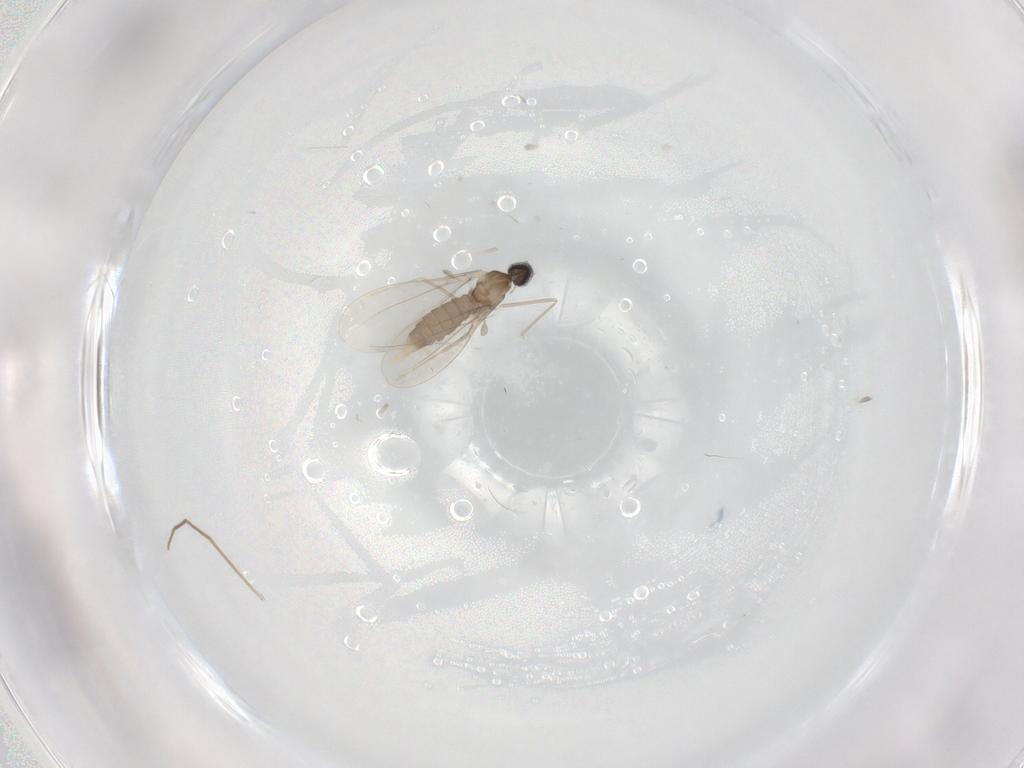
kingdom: Animalia
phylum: Arthropoda
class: Insecta
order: Diptera
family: Cecidomyiidae
